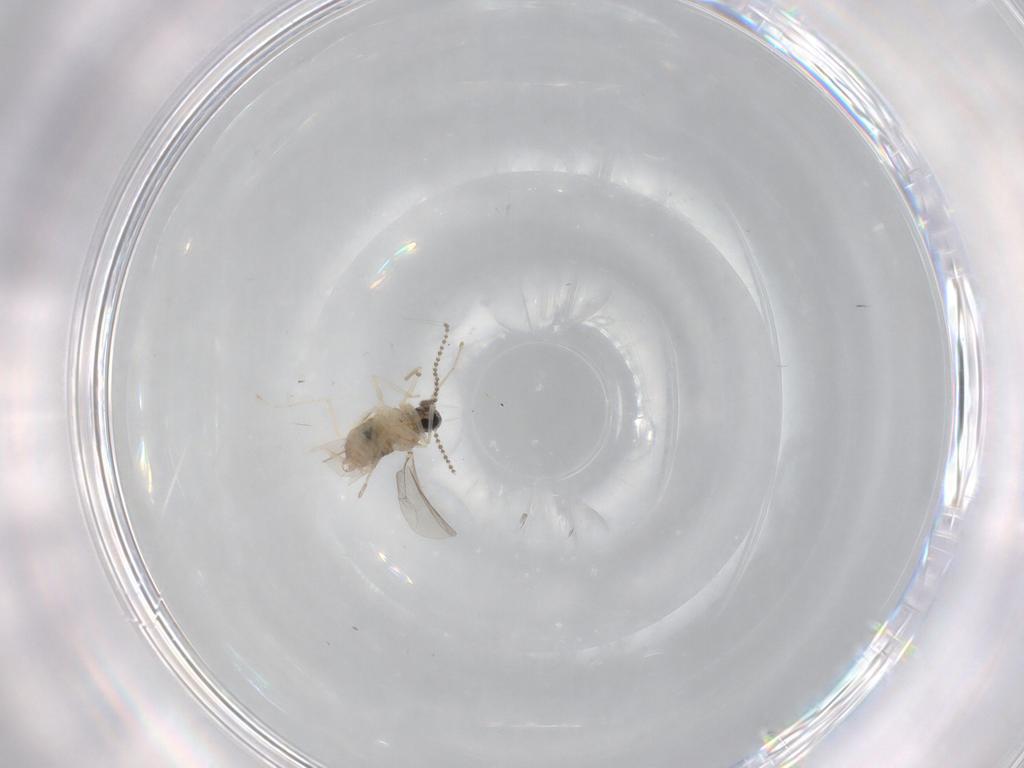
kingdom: Animalia
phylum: Arthropoda
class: Insecta
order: Diptera
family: Cecidomyiidae
